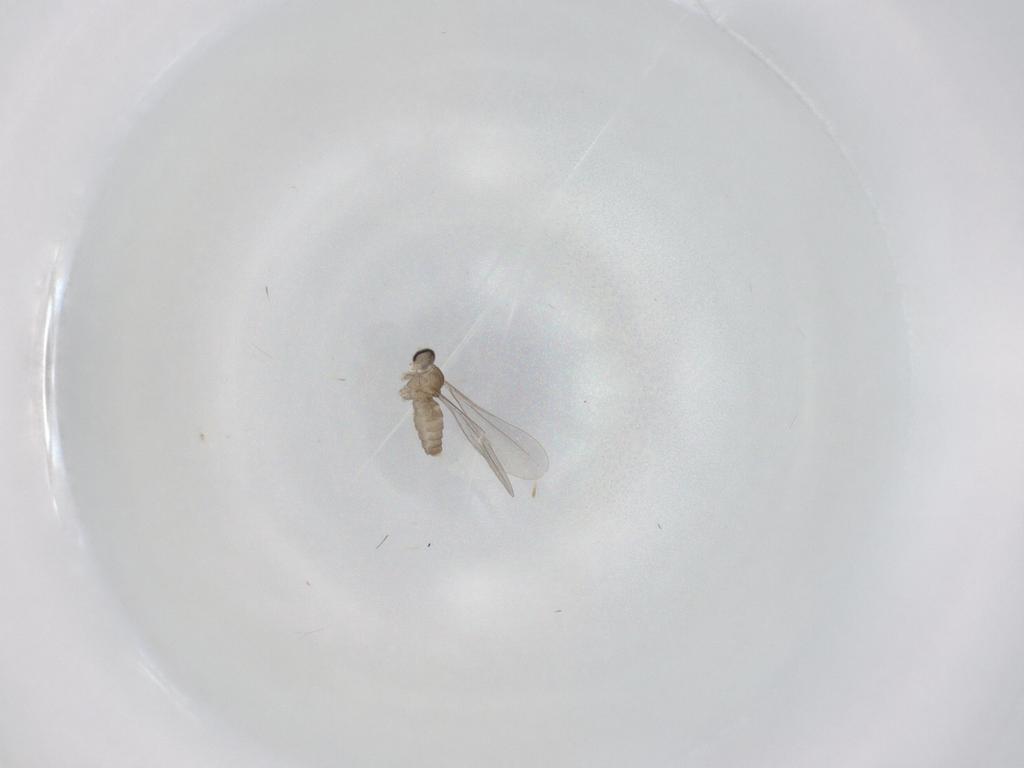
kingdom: Animalia
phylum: Arthropoda
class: Insecta
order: Diptera
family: Cecidomyiidae
